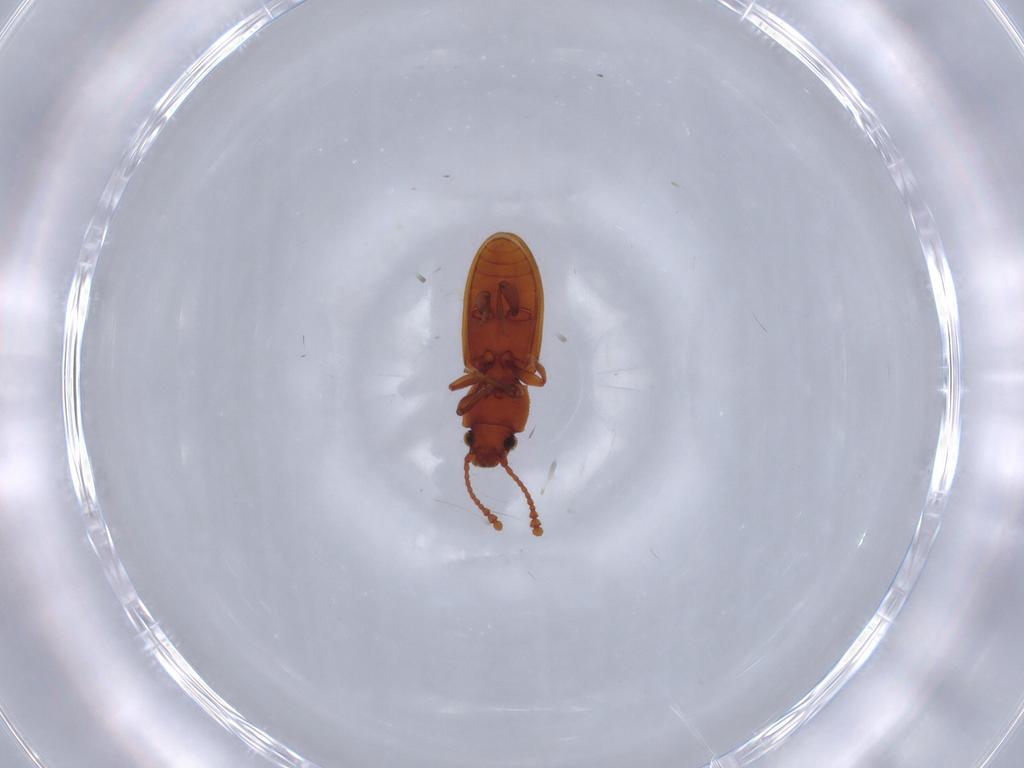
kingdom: Animalia
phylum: Arthropoda
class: Insecta
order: Coleoptera
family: Silvanidae
